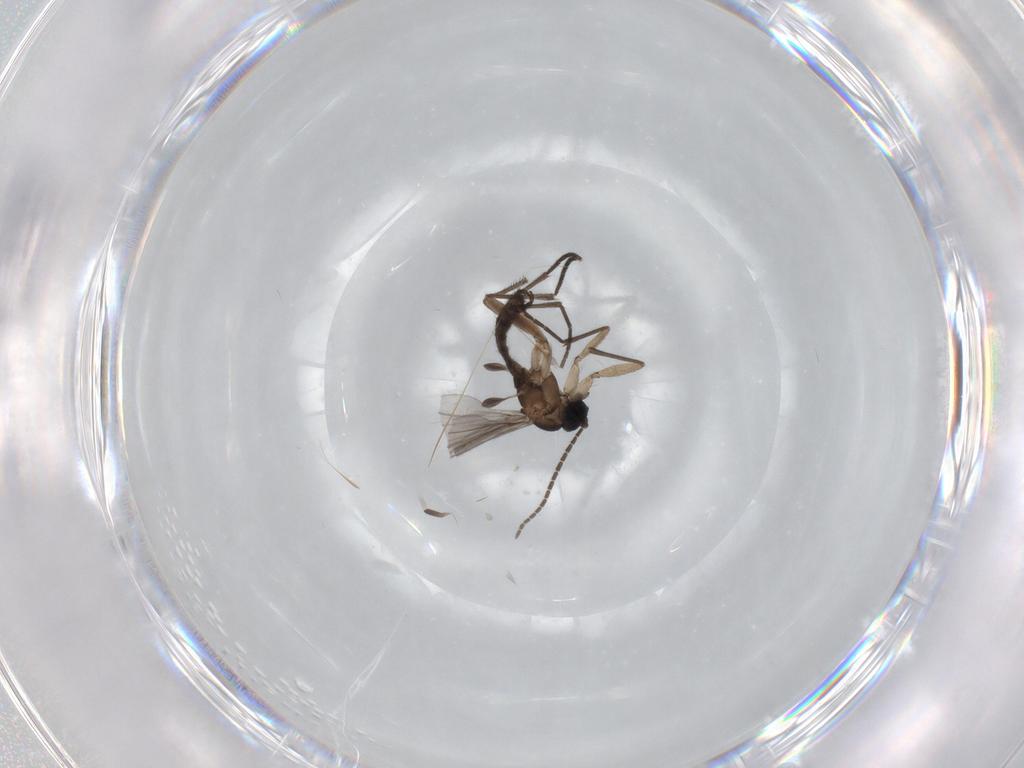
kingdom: Animalia
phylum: Arthropoda
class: Insecta
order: Diptera
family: Sciaridae
